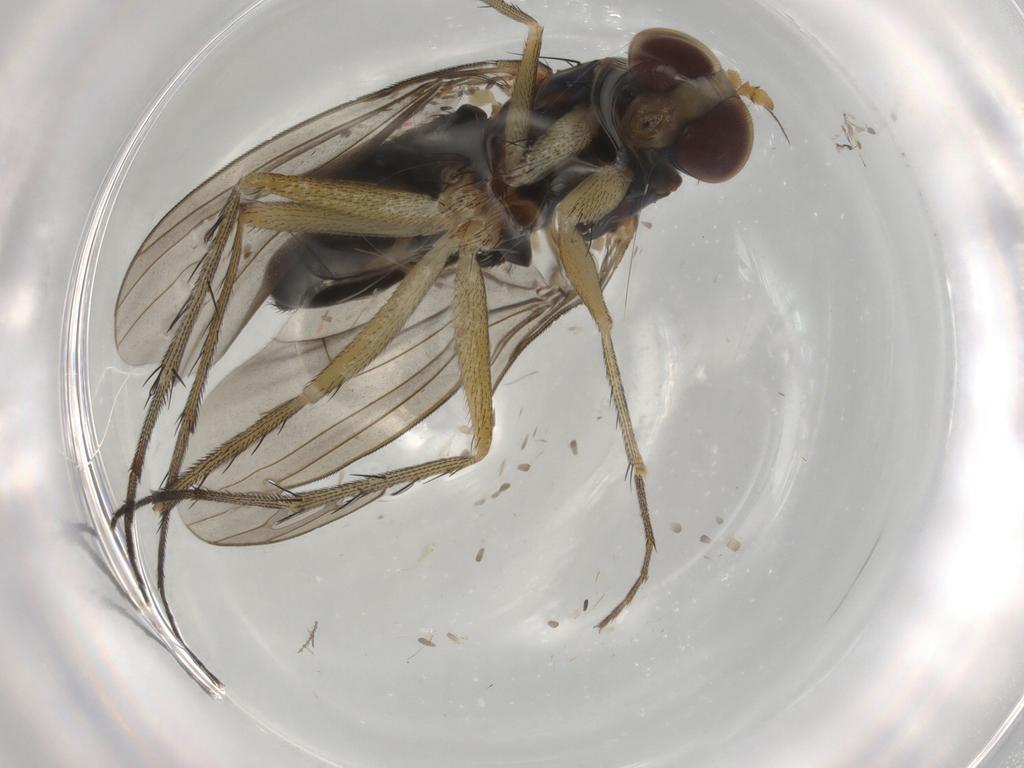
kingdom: Animalia
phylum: Arthropoda
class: Insecta
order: Diptera
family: Dolichopodidae
